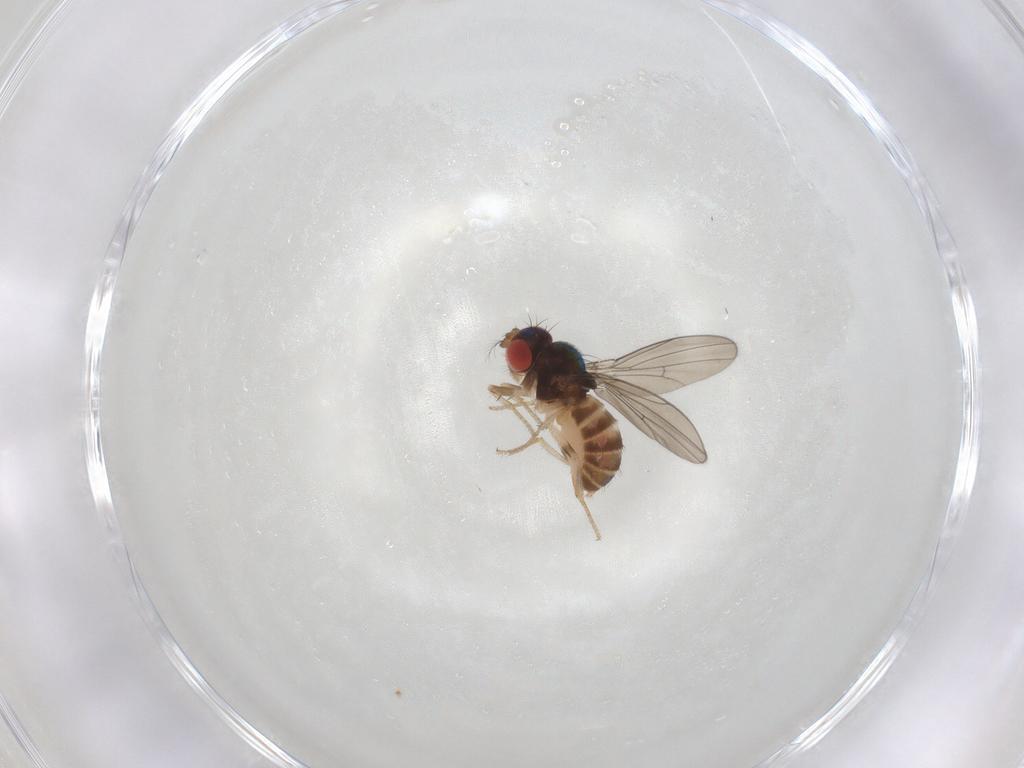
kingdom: Animalia
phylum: Arthropoda
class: Insecta
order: Diptera
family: Drosophilidae
